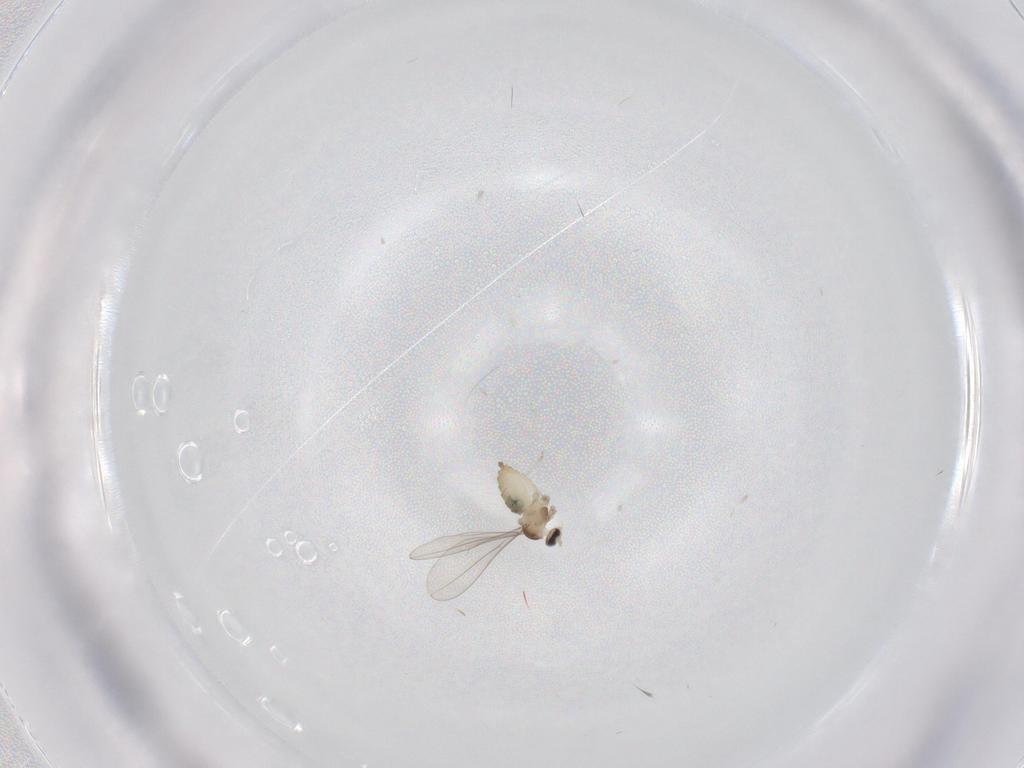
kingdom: Animalia
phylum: Arthropoda
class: Insecta
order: Diptera
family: Cecidomyiidae
